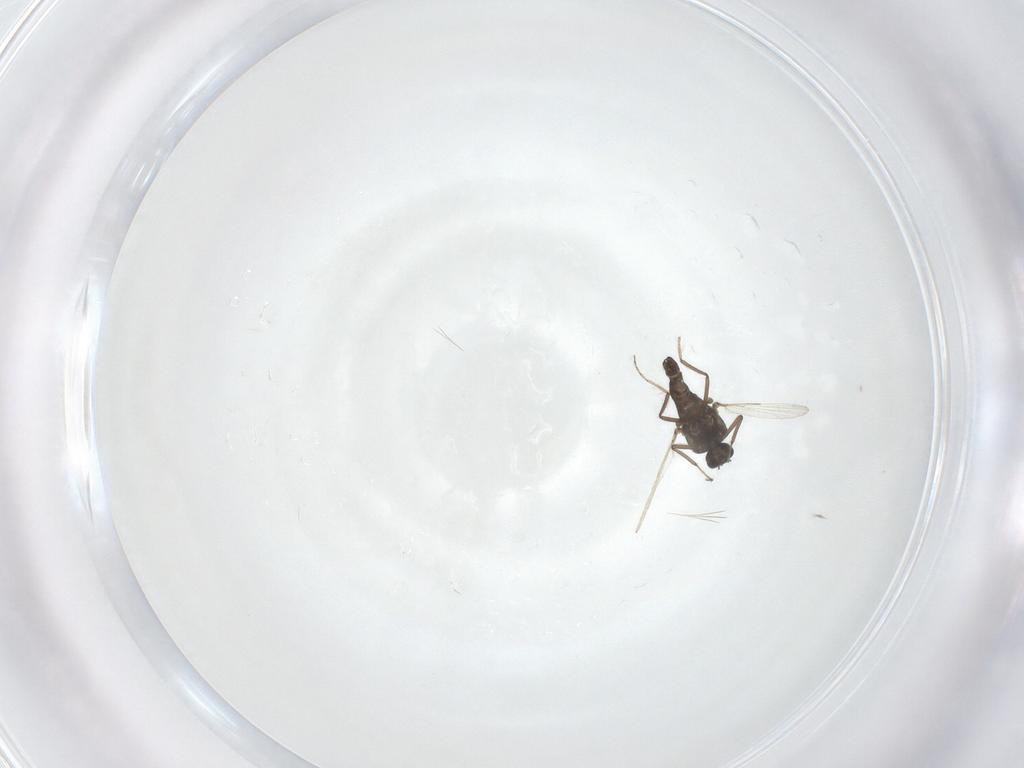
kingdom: Animalia
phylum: Arthropoda
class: Insecta
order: Diptera
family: Ceratopogonidae
